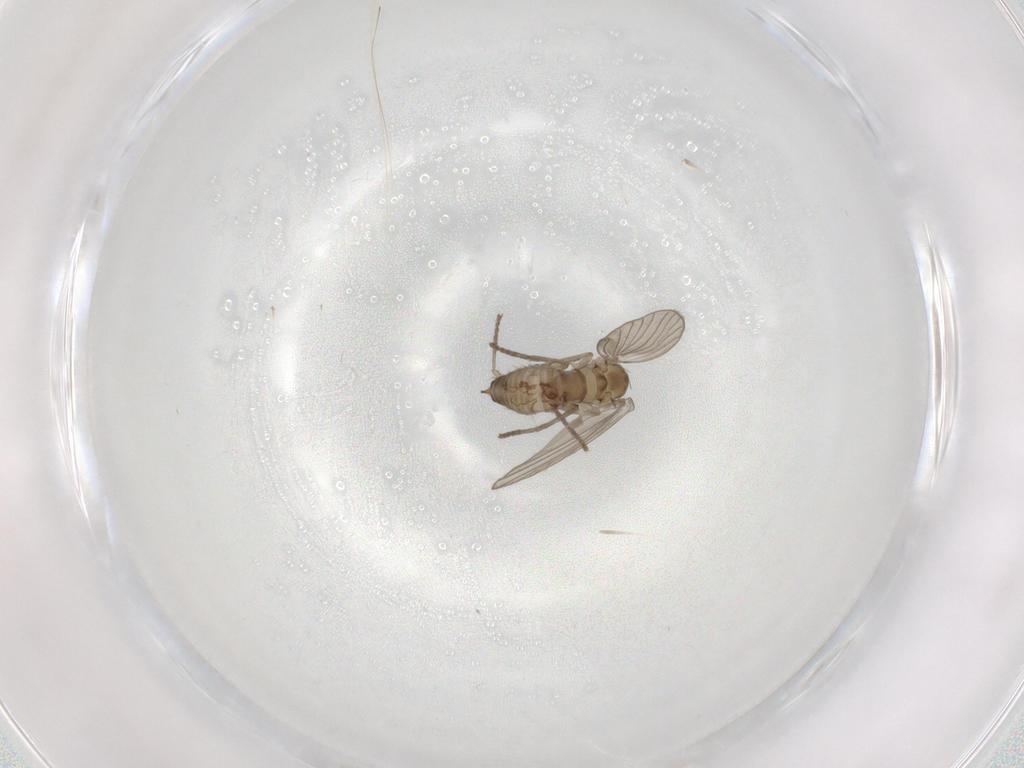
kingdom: Animalia
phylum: Arthropoda
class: Insecta
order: Diptera
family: Psychodidae
